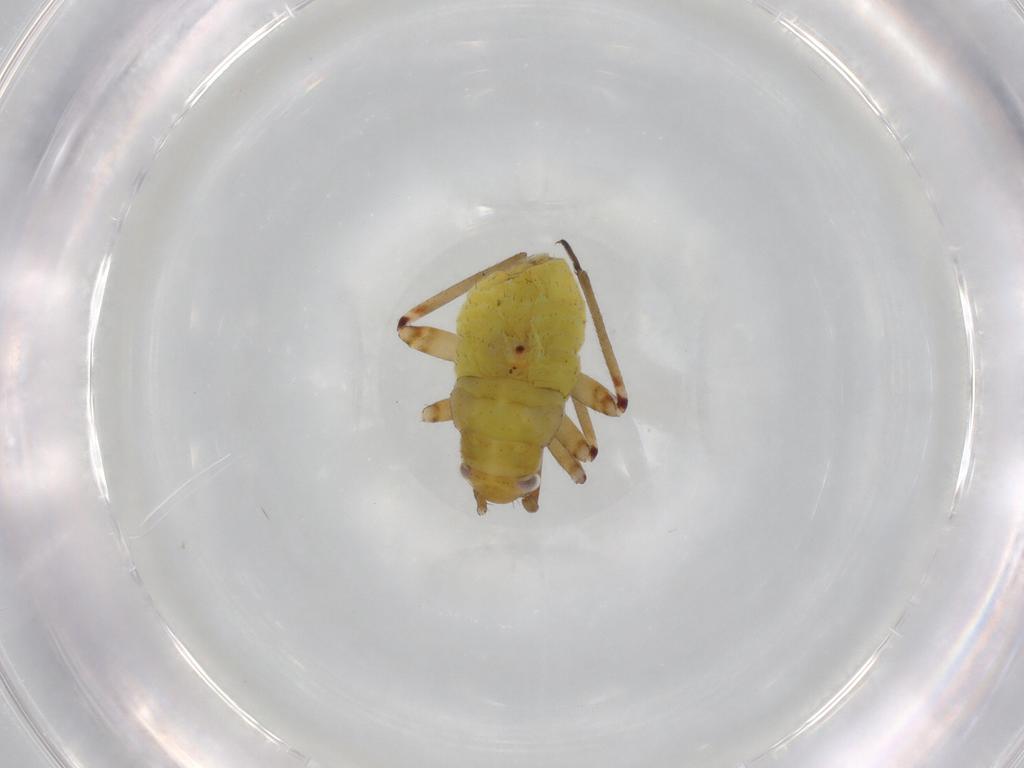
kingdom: Animalia
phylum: Arthropoda
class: Insecta
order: Hemiptera
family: Miridae
